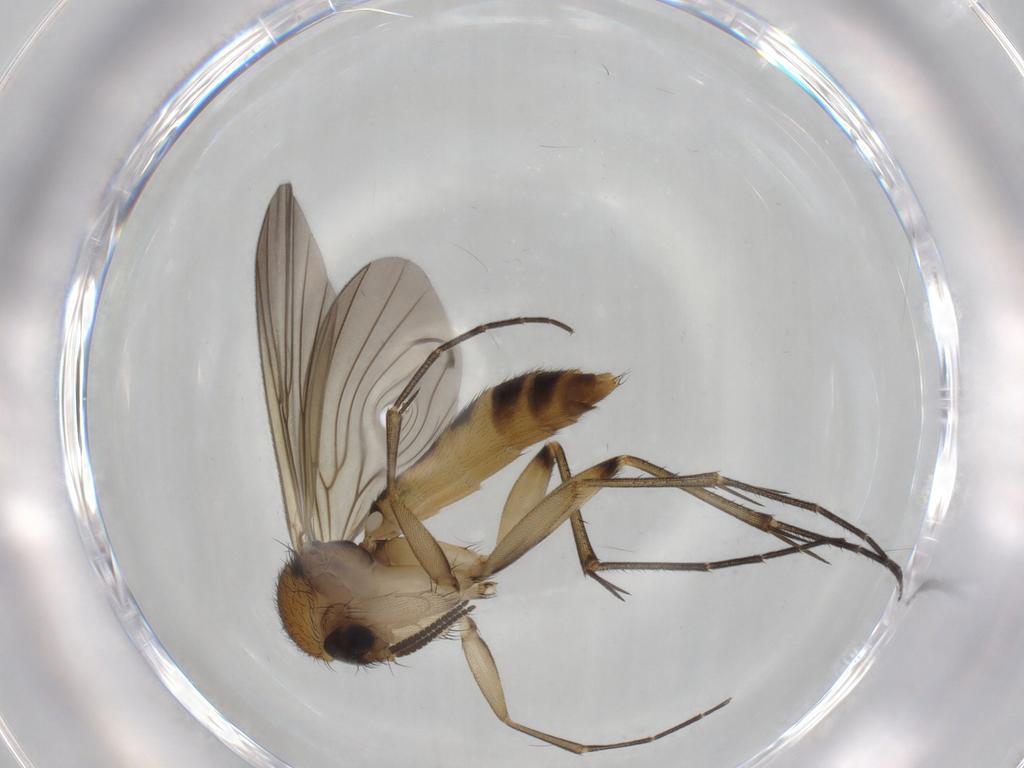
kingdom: Animalia
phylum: Arthropoda
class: Insecta
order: Diptera
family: Mycetophilidae
